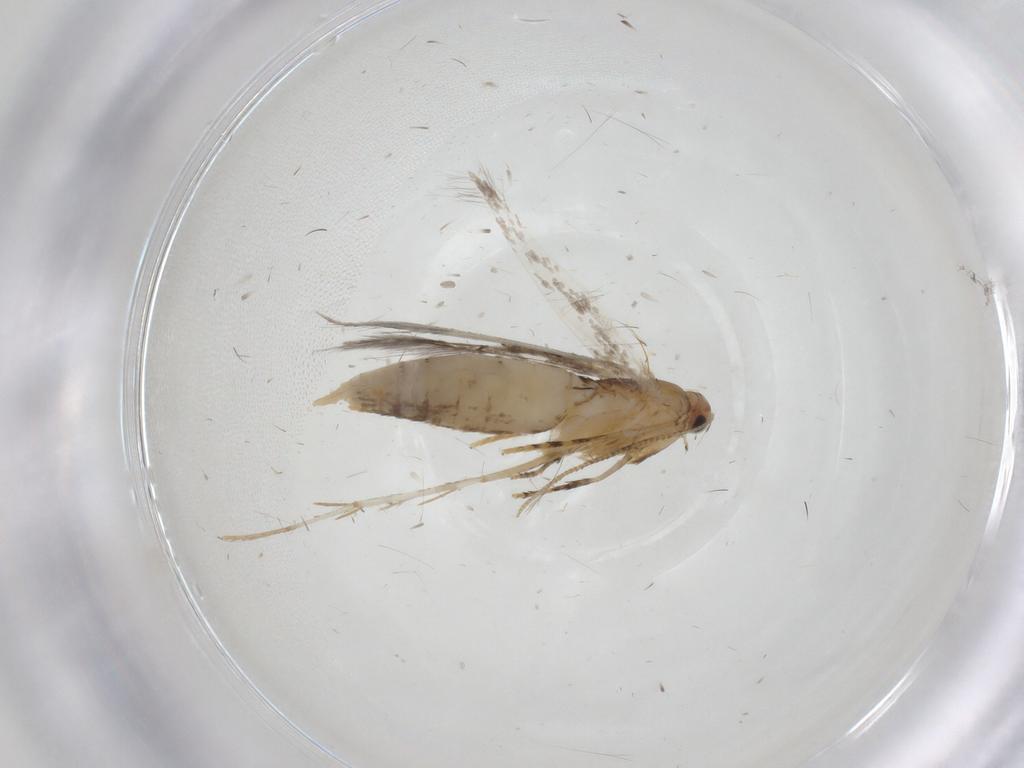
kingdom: Animalia
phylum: Arthropoda
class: Insecta
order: Lepidoptera
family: Tineidae
